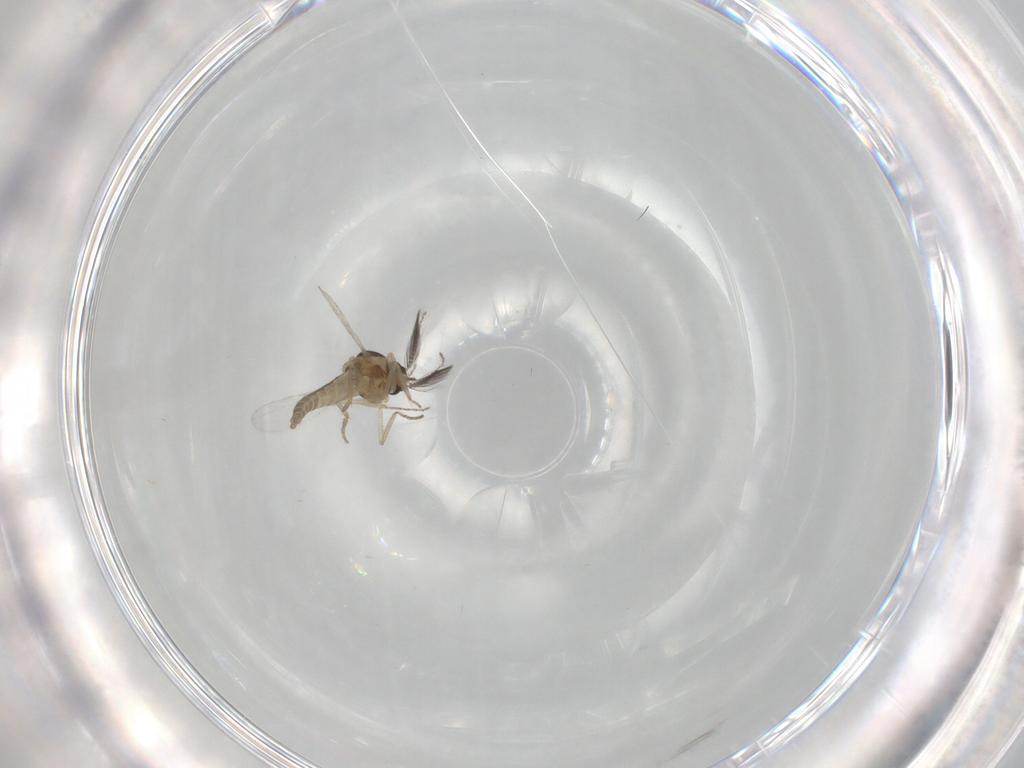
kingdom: Animalia
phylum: Arthropoda
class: Insecta
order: Diptera
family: Ceratopogonidae
